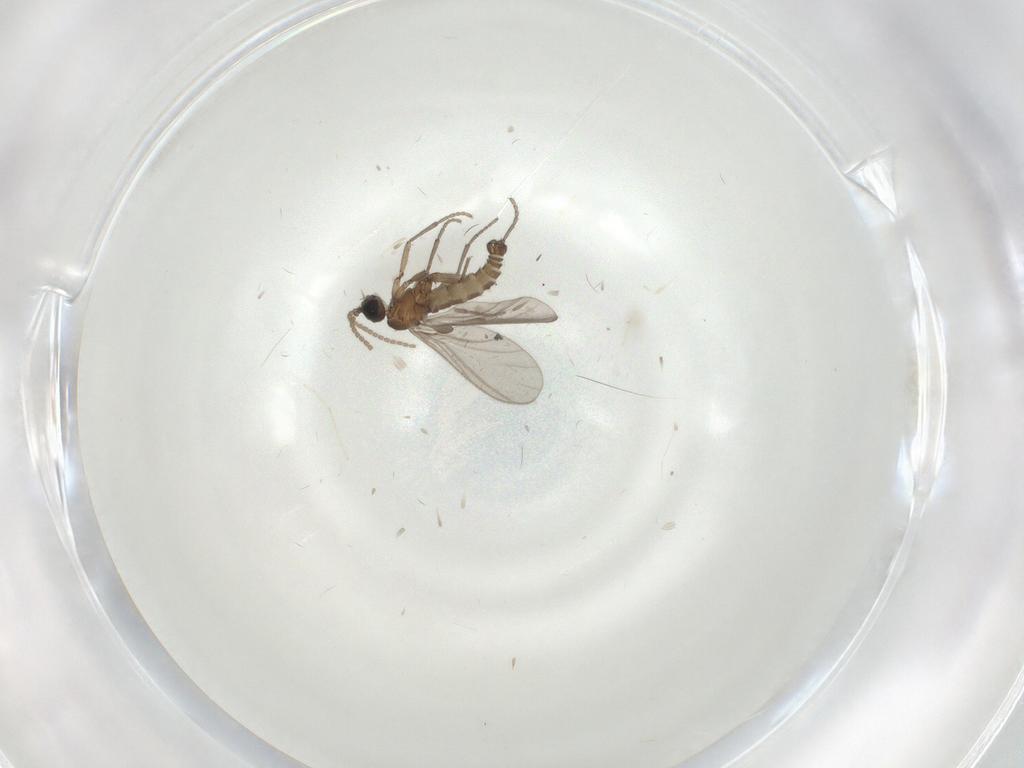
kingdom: Animalia
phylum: Arthropoda
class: Insecta
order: Diptera
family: Sciaridae
